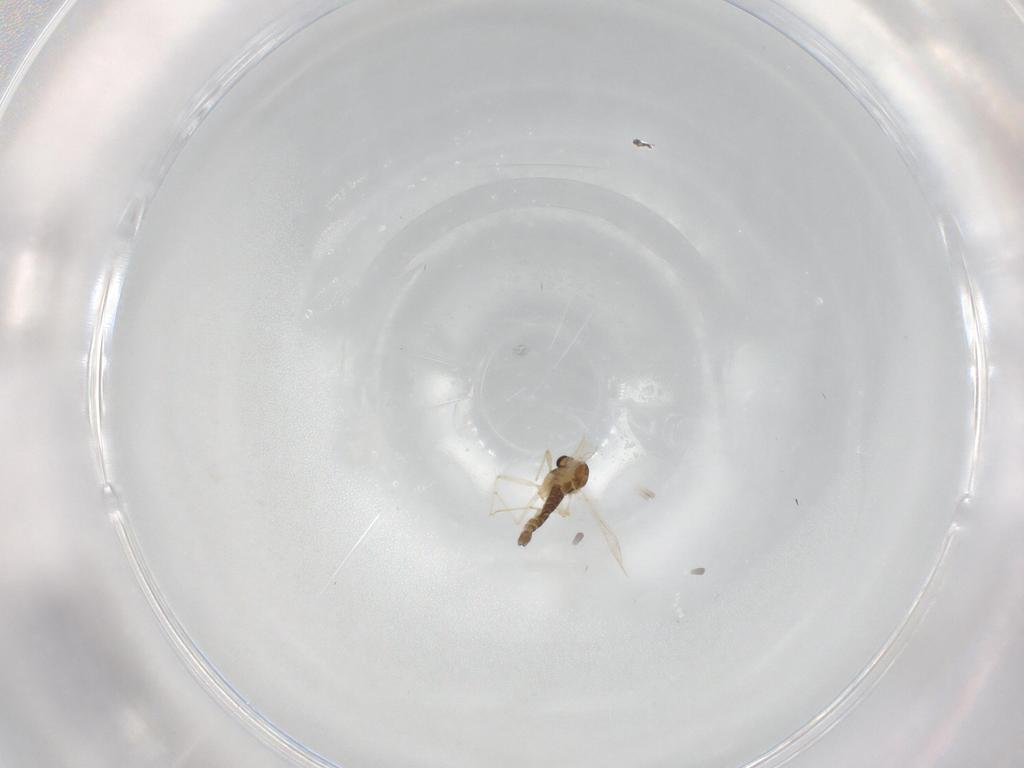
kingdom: Animalia
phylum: Arthropoda
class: Insecta
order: Diptera
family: Chironomidae
